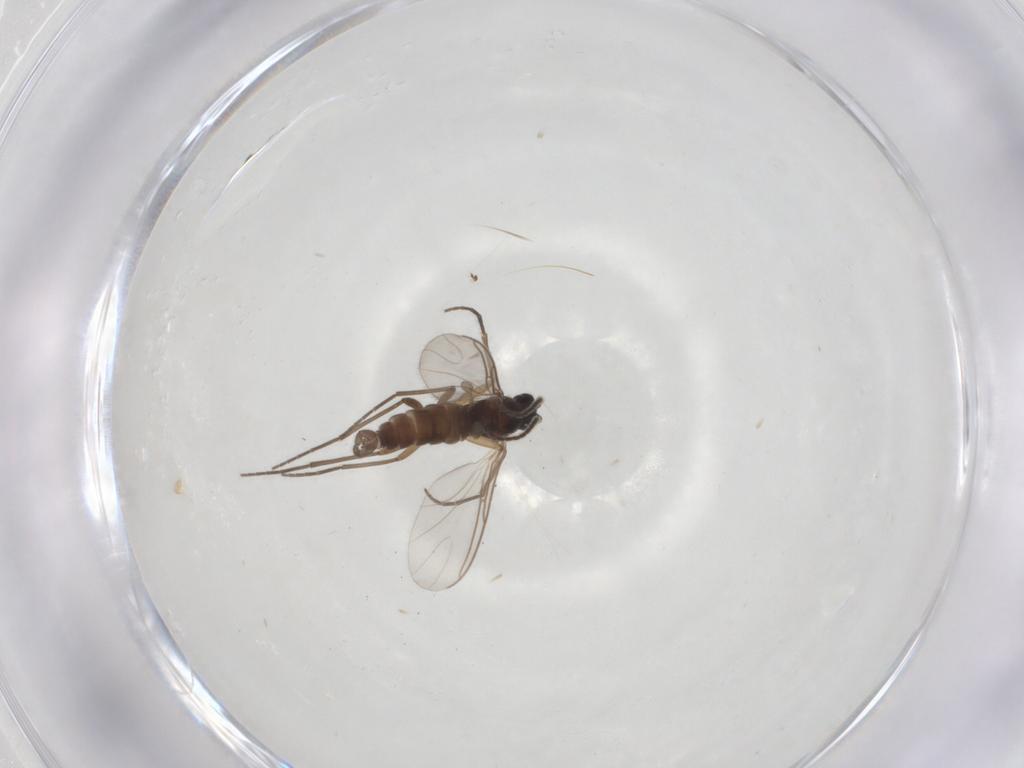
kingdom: Animalia
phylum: Arthropoda
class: Insecta
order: Diptera
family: Sciaridae
